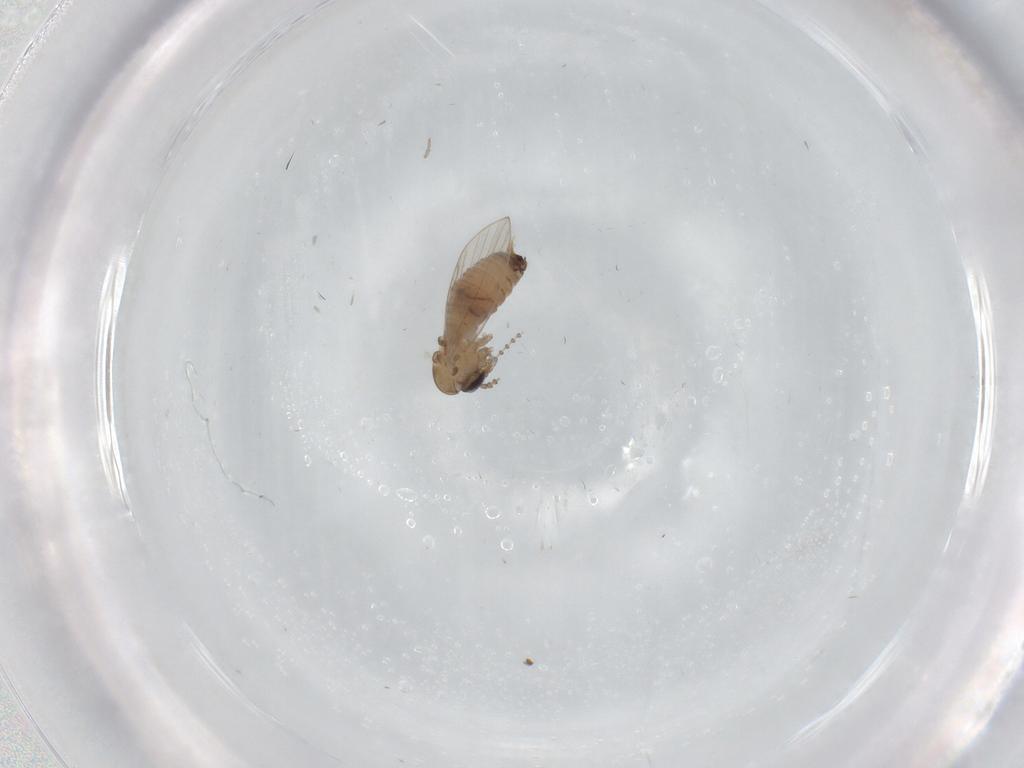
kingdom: Animalia
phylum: Arthropoda
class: Insecta
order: Diptera
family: Psychodidae
